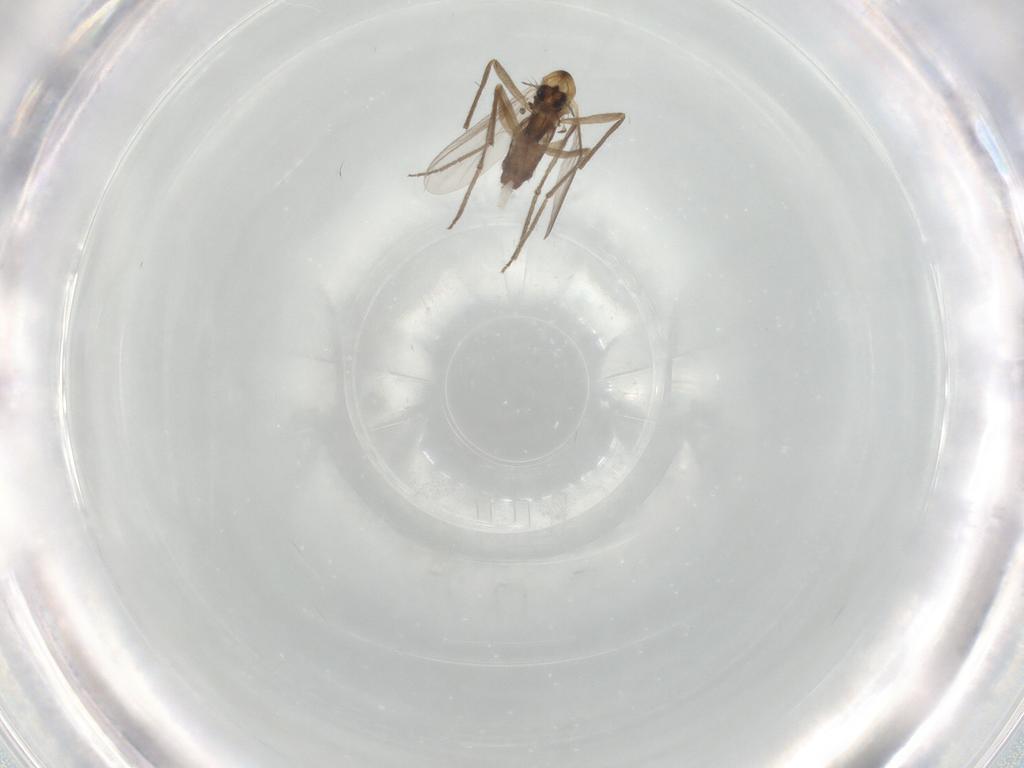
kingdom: Animalia
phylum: Arthropoda
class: Insecta
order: Diptera
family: Chironomidae
